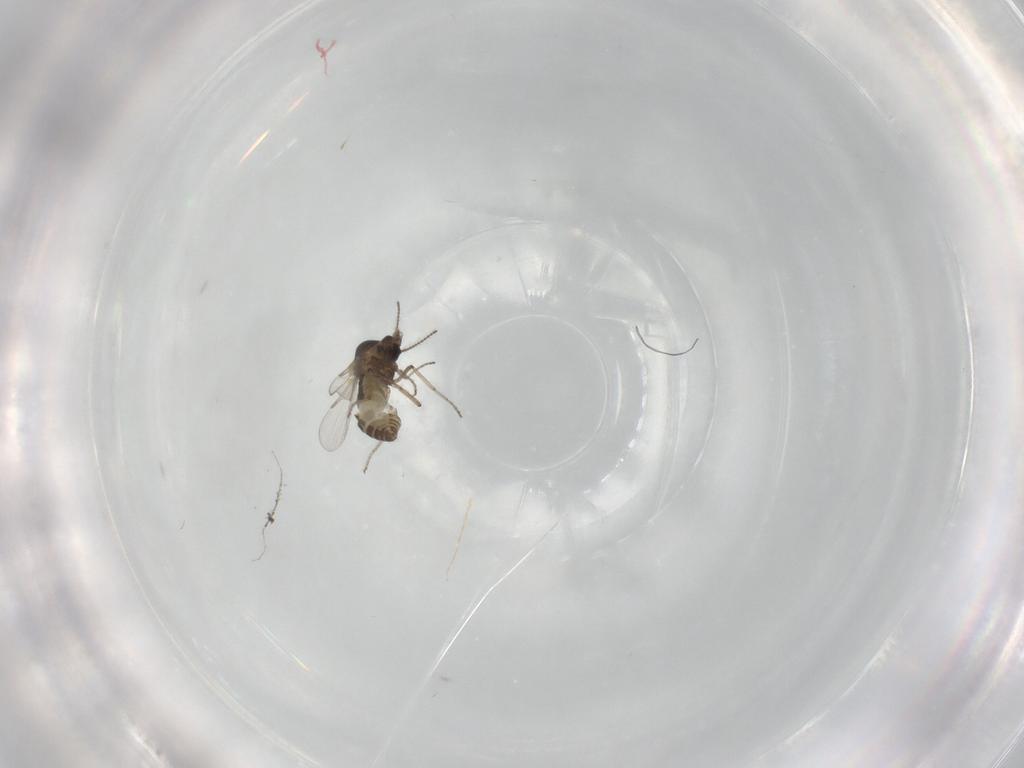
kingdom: Animalia
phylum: Arthropoda
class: Insecta
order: Diptera
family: Ceratopogonidae
